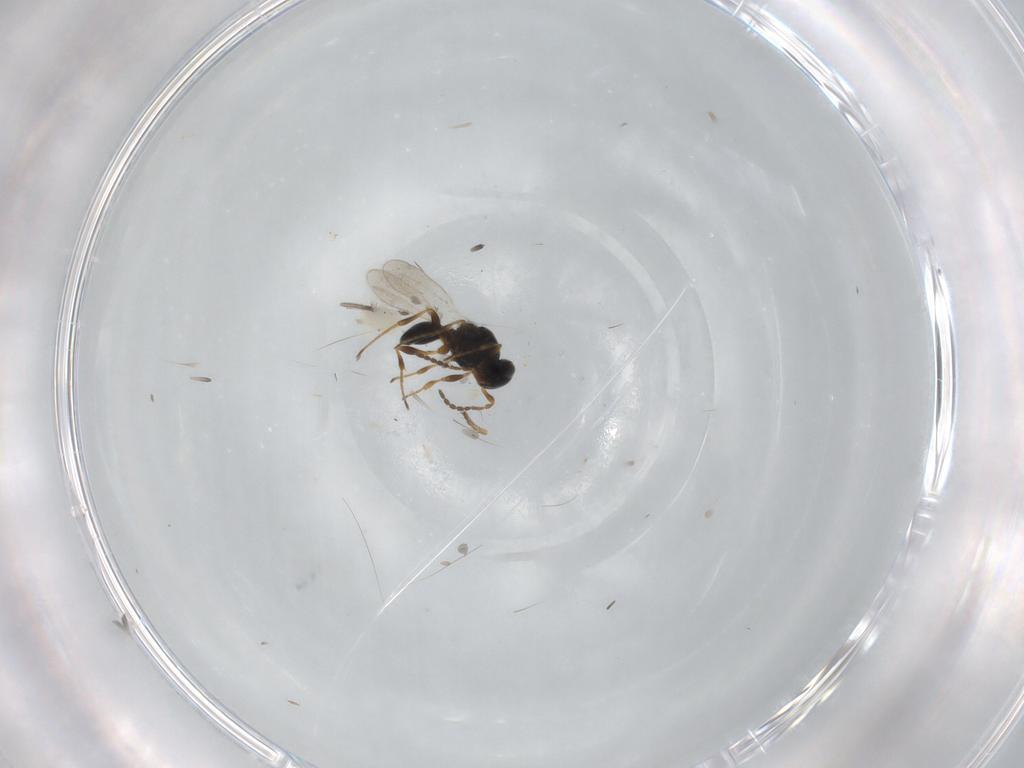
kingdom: Animalia
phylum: Arthropoda
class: Insecta
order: Hymenoptera
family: Platygastridae
